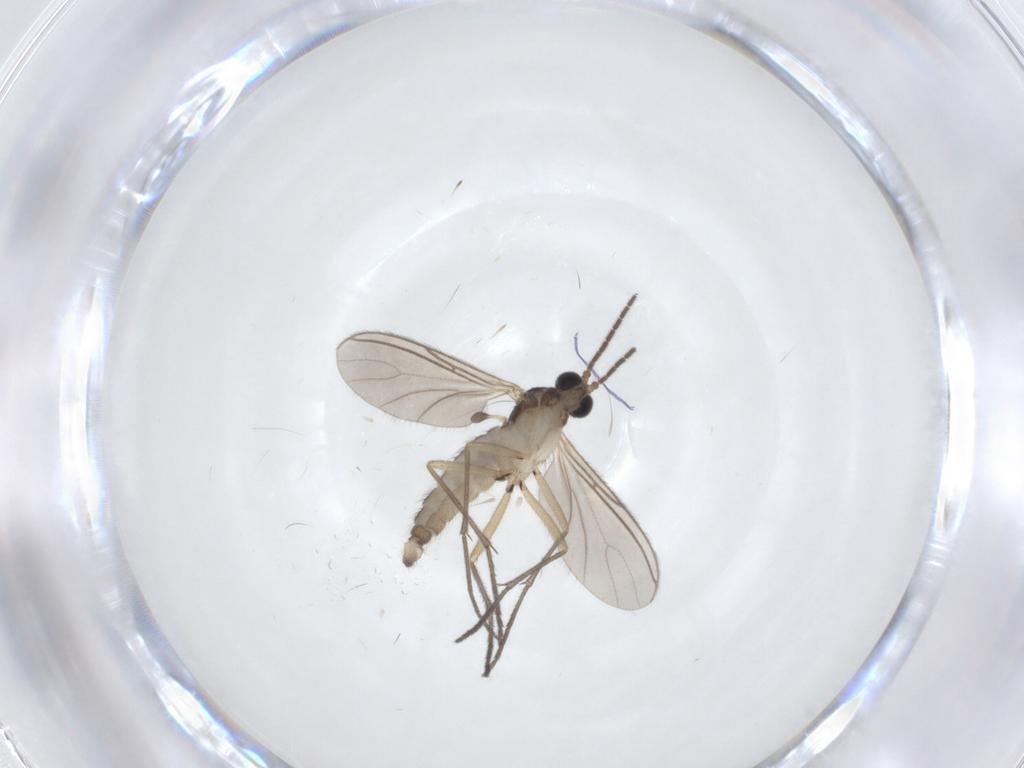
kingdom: Animalia
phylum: Arthropoda
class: Insecta
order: Diptera
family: Sciaridae
